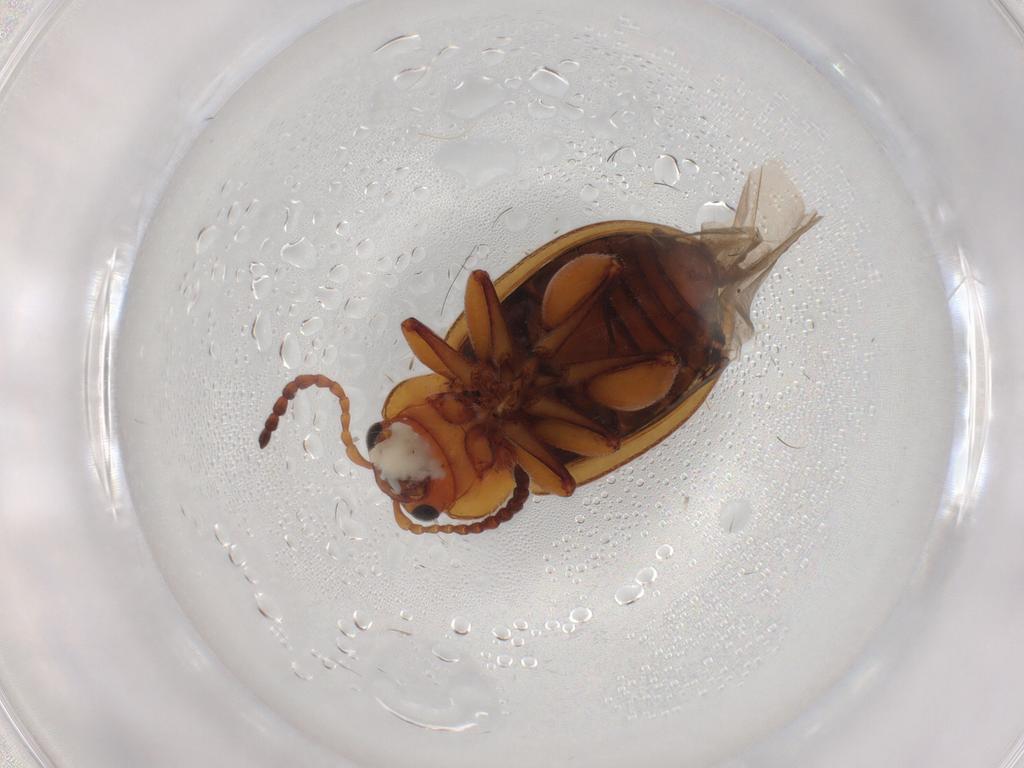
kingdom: Animalia
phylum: Arthropoda
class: Insecta
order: Coleoptera
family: Chrysomelidae
